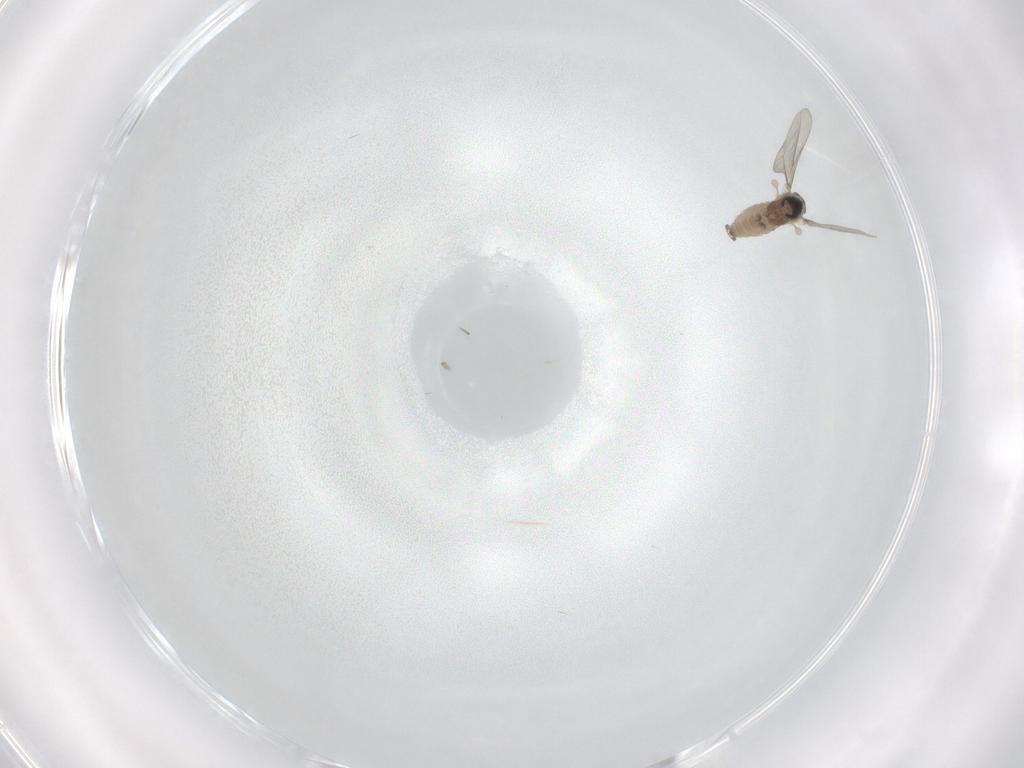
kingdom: Animalia
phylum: Arthropoda
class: Insecta
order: Diptera
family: Cecidomyiidae
